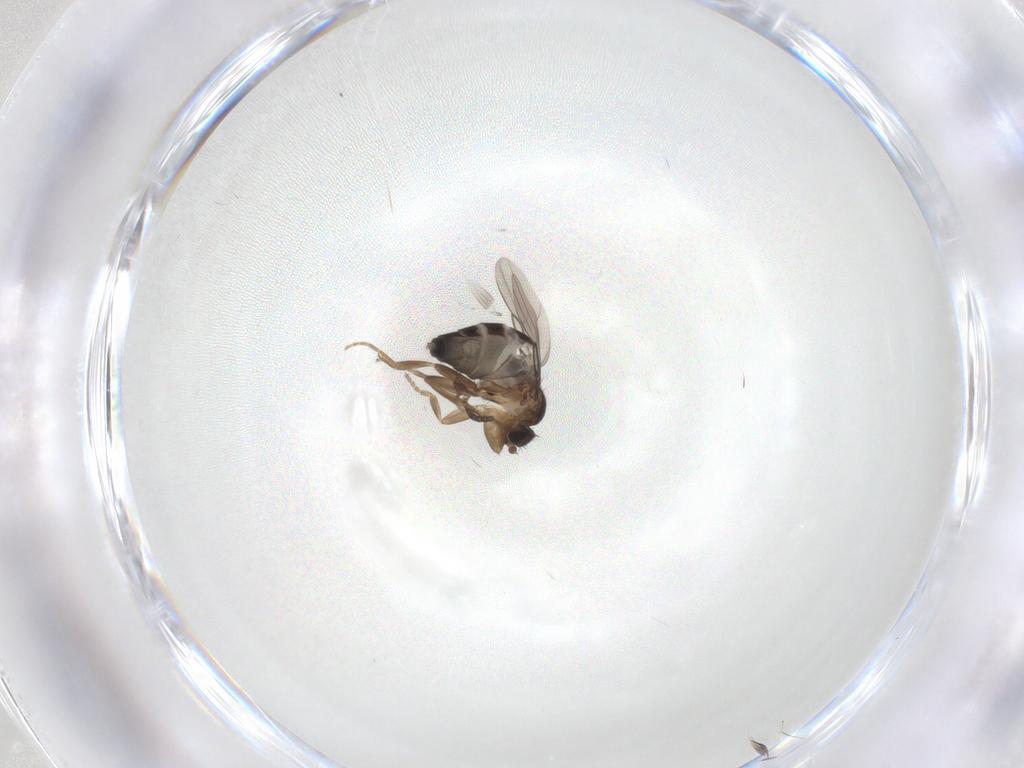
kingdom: Animalia
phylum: Arthropoda
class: Insecta
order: Diptera
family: Phoridae
